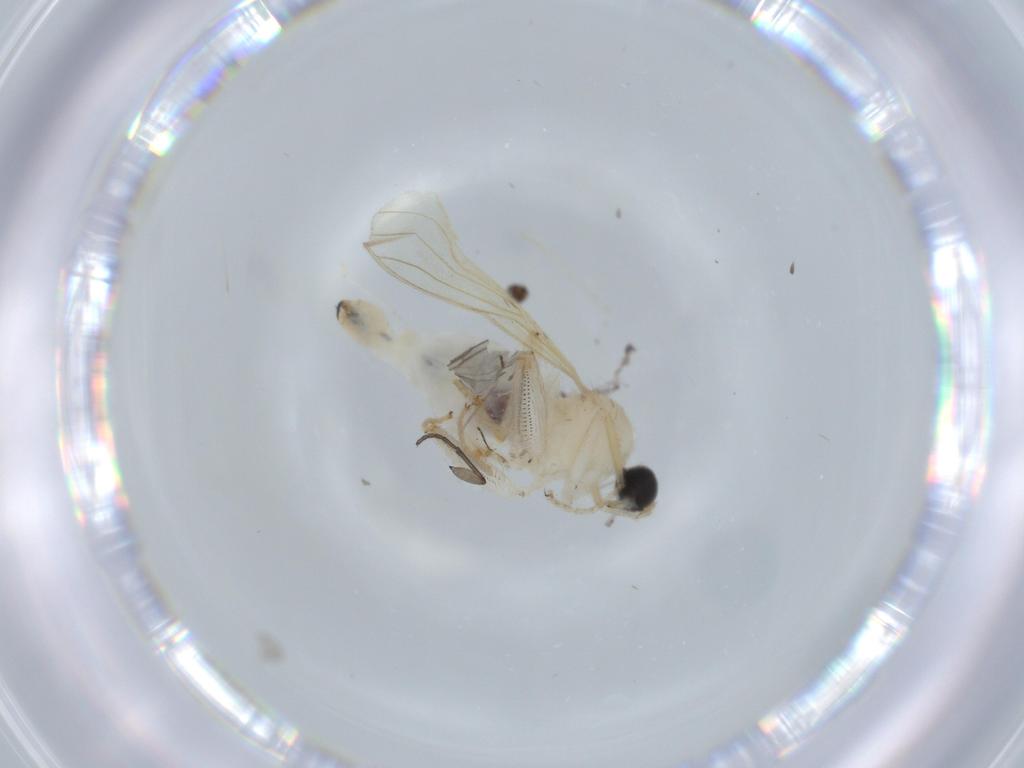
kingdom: Animalia
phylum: Arthropoda
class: Insecta
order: Diptera
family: Hybotidae
